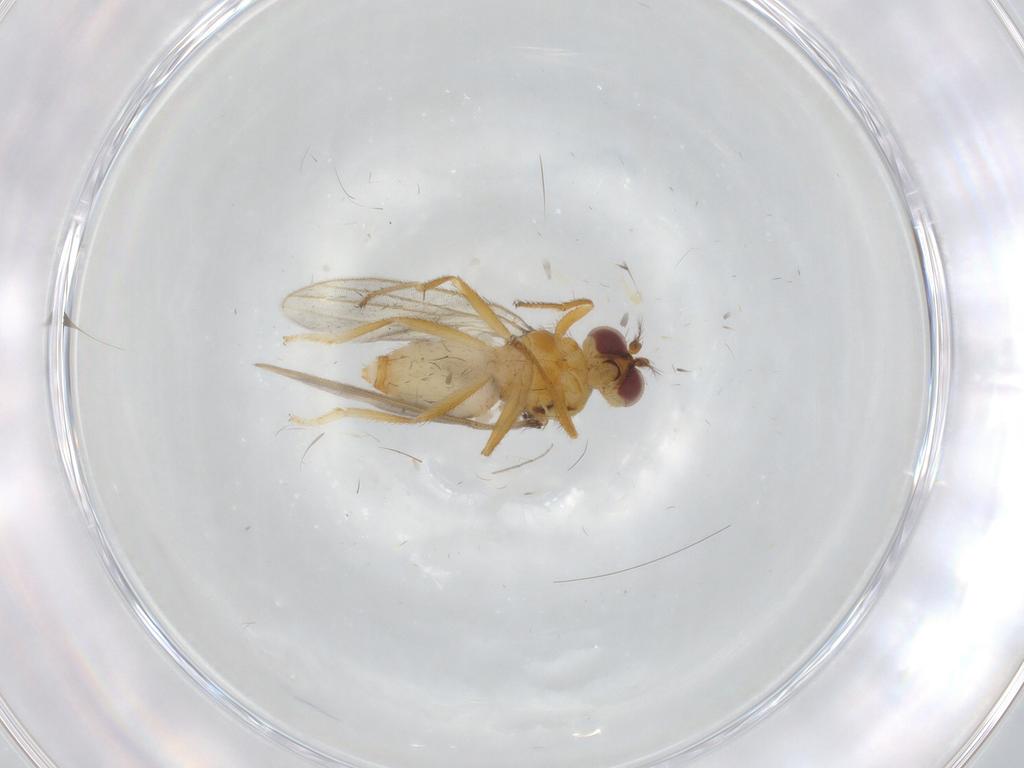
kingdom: Animalia
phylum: Arthropoda
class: Insecta
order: Diptera
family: Periscelididae
